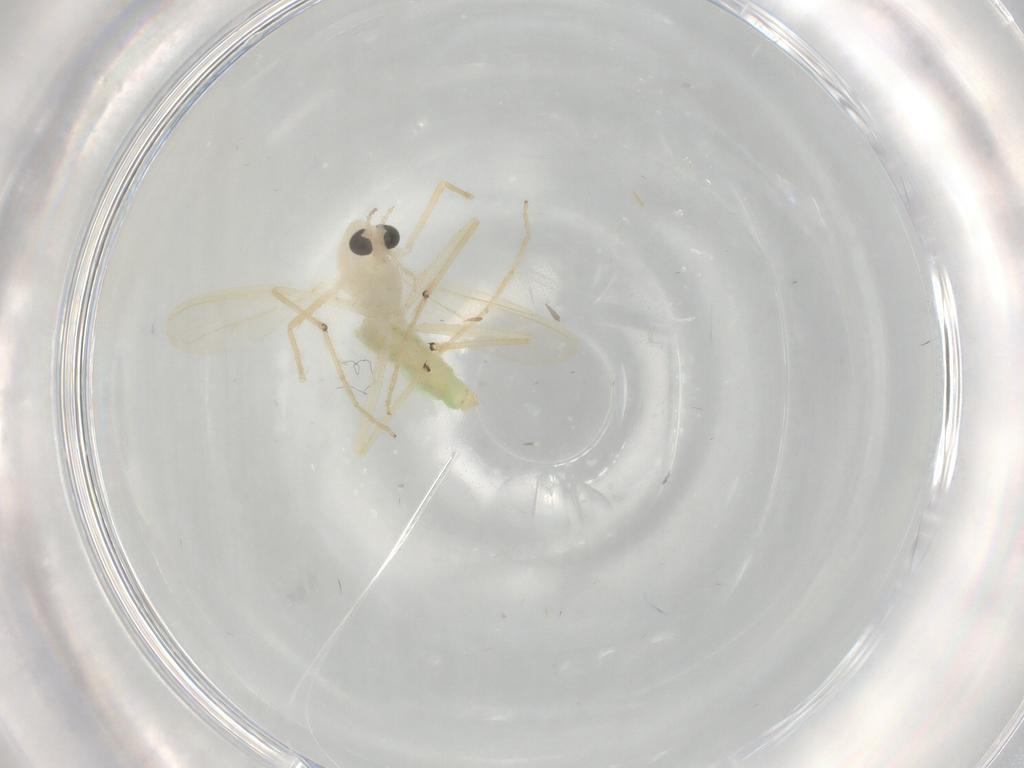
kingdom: Animalia
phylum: Arthropoda
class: Insecta
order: Diptera
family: Chironomidae
